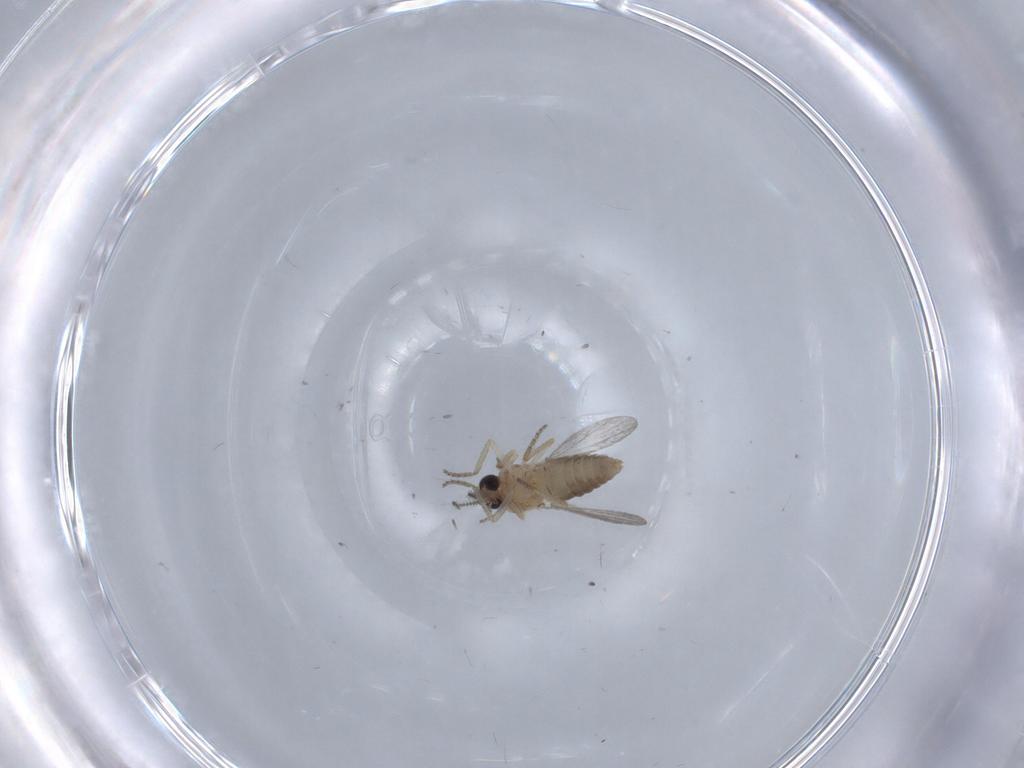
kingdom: Animalia
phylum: Arthropoda
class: Insecta
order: Diptera
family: Ceratopogonidae
